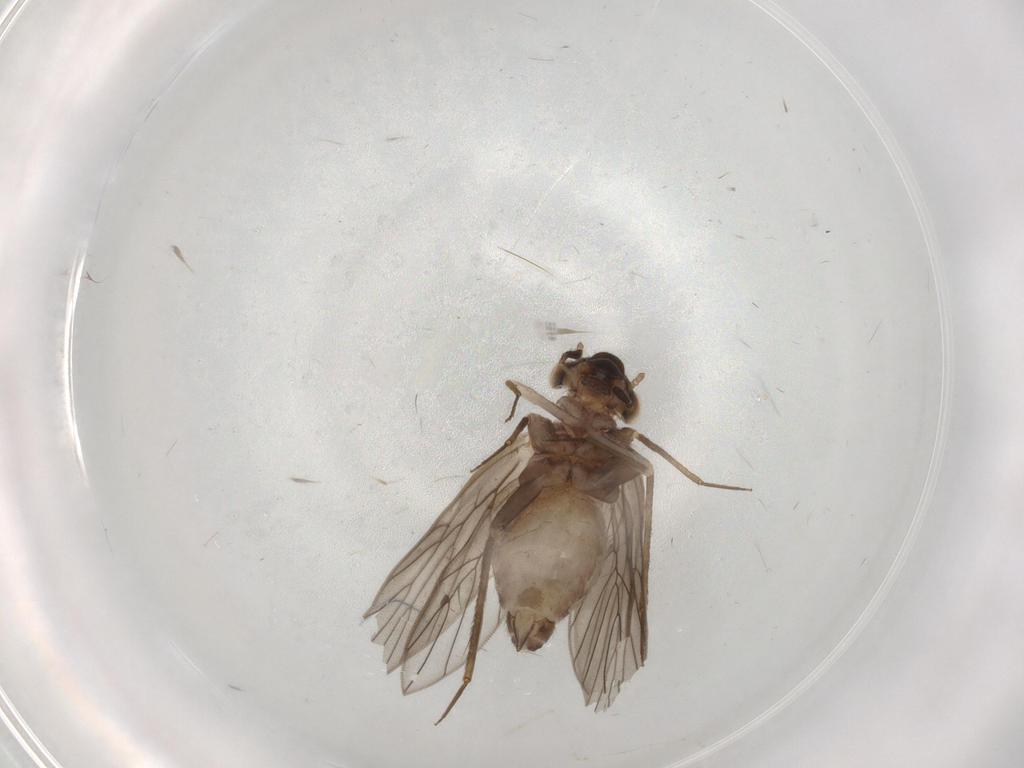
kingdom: Animalia
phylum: Arthropoda
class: Insecta
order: Psocodea
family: Lepidopsocidae
